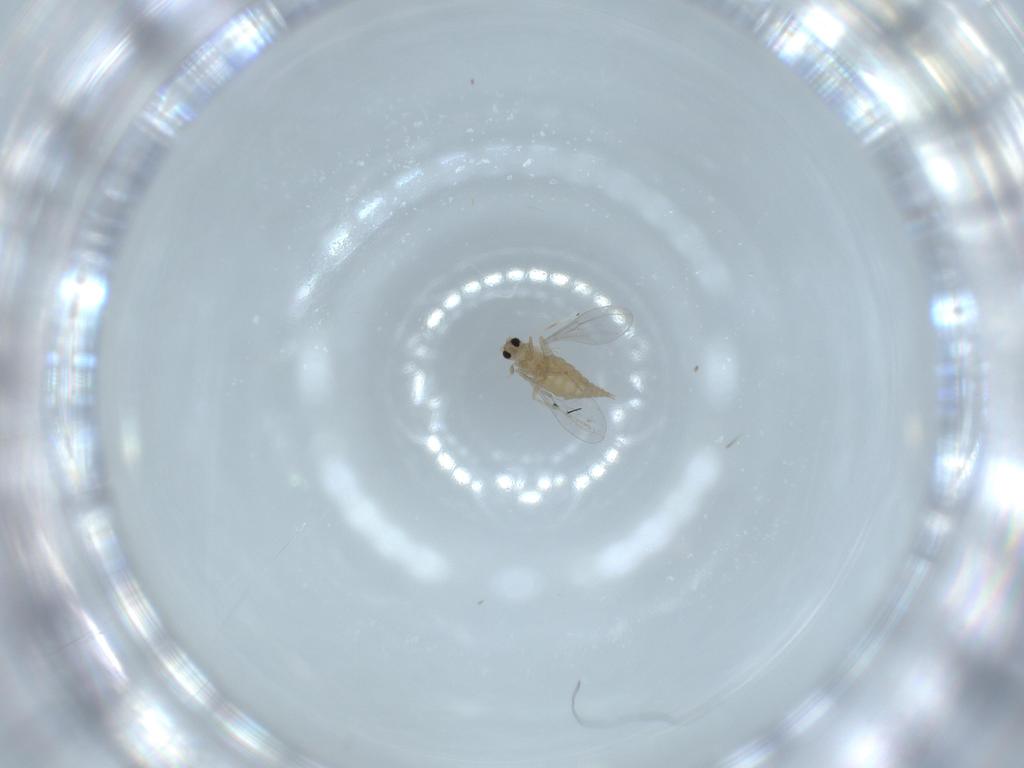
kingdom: Animalia
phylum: Arthropoda
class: Insecta
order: Diptera
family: Cecidomyiidae
